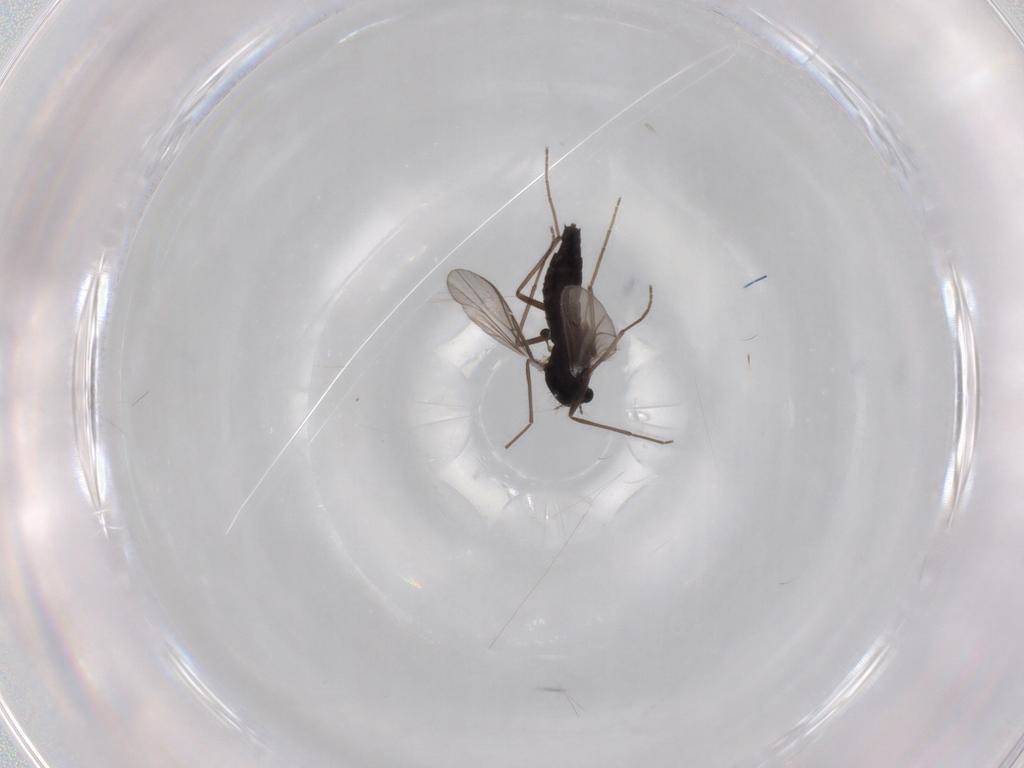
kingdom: Animalia
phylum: Arthropoda
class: Insecta
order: Diptera
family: Chironomidae
